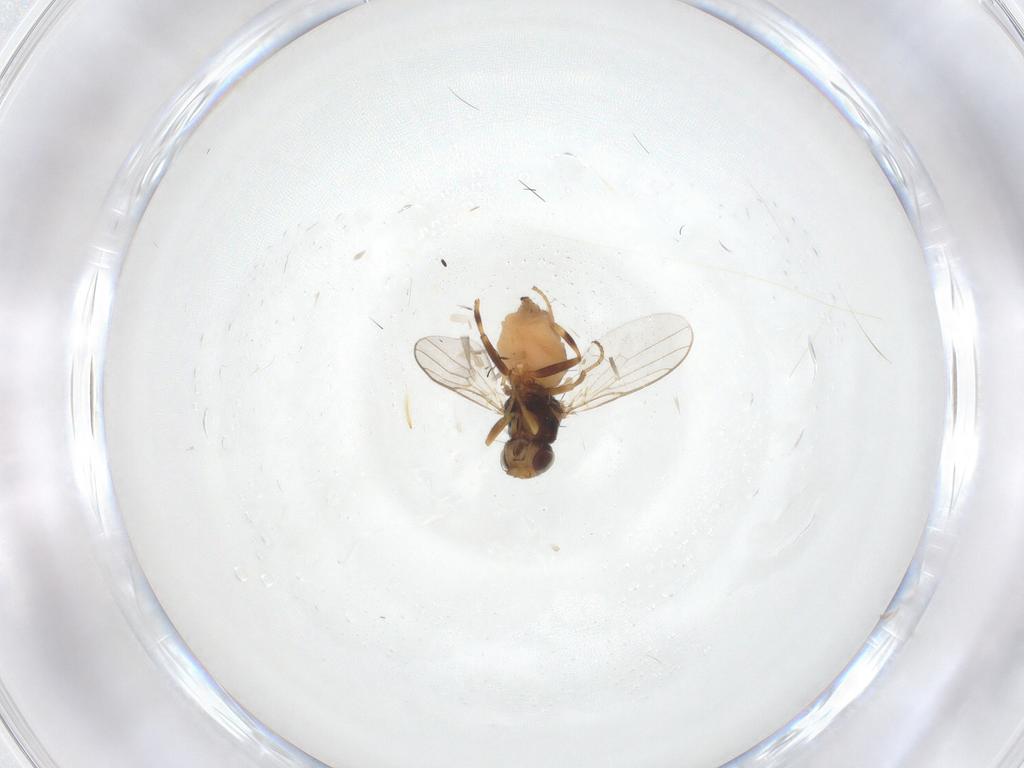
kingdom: Animalia
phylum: Arthropoda
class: Insecta
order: Diptera
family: Chloropidae
